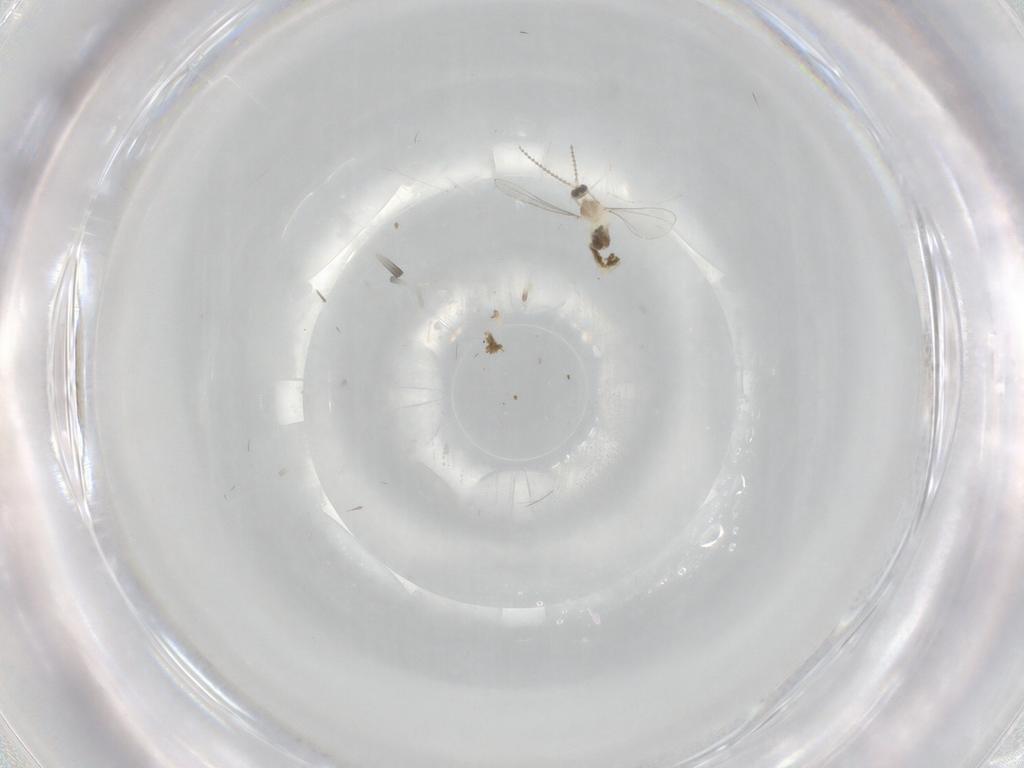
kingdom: Animalia
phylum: Arthropoda
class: Insecta
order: Diptera
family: Cecidomyiidae
